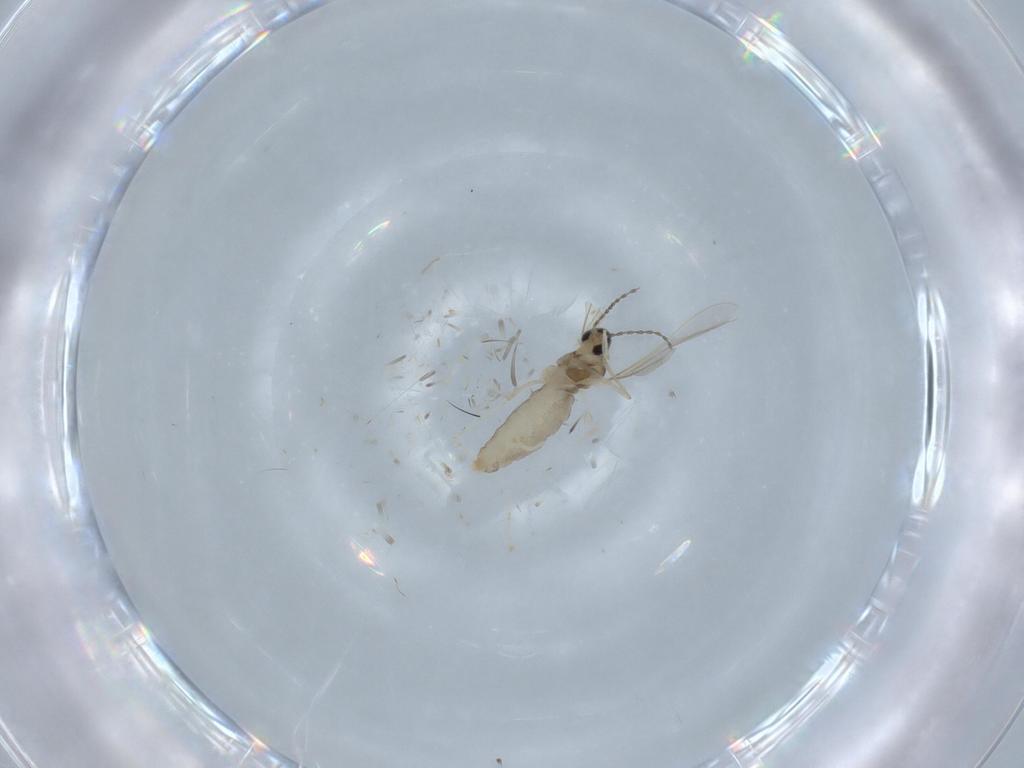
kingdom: Animalia
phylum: Arthropoda
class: Insecta
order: Diptera
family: Cecidomyiidae
